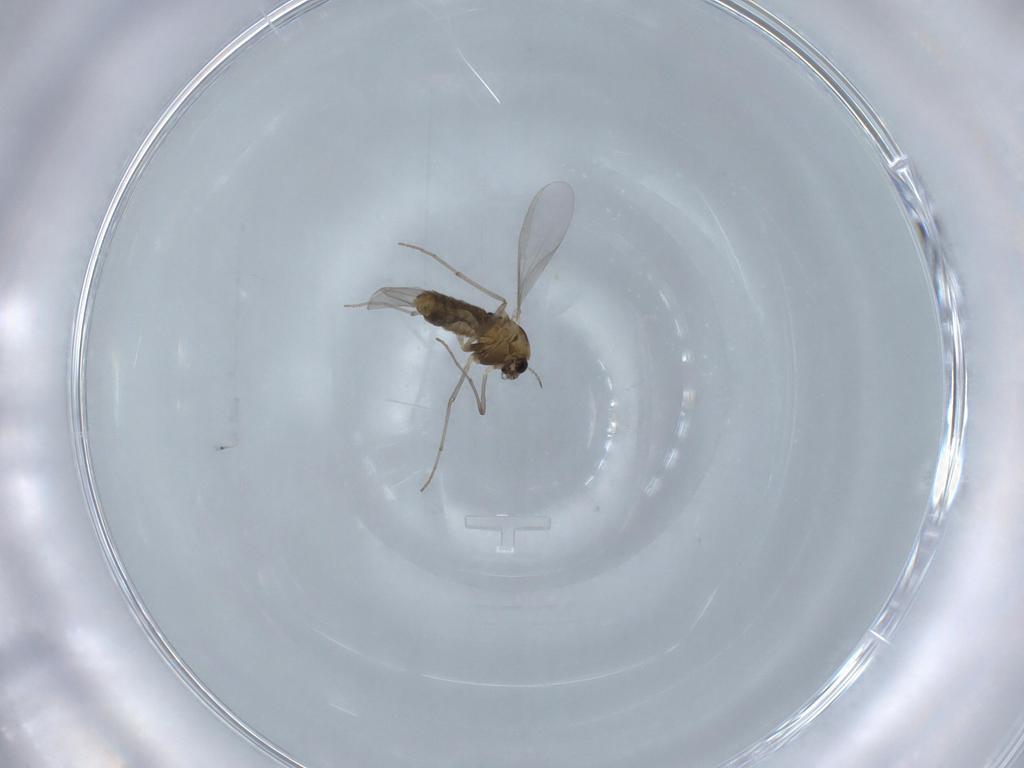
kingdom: Animalia
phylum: Arthropoda
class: Insecta
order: Diptera
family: Chironomidae
